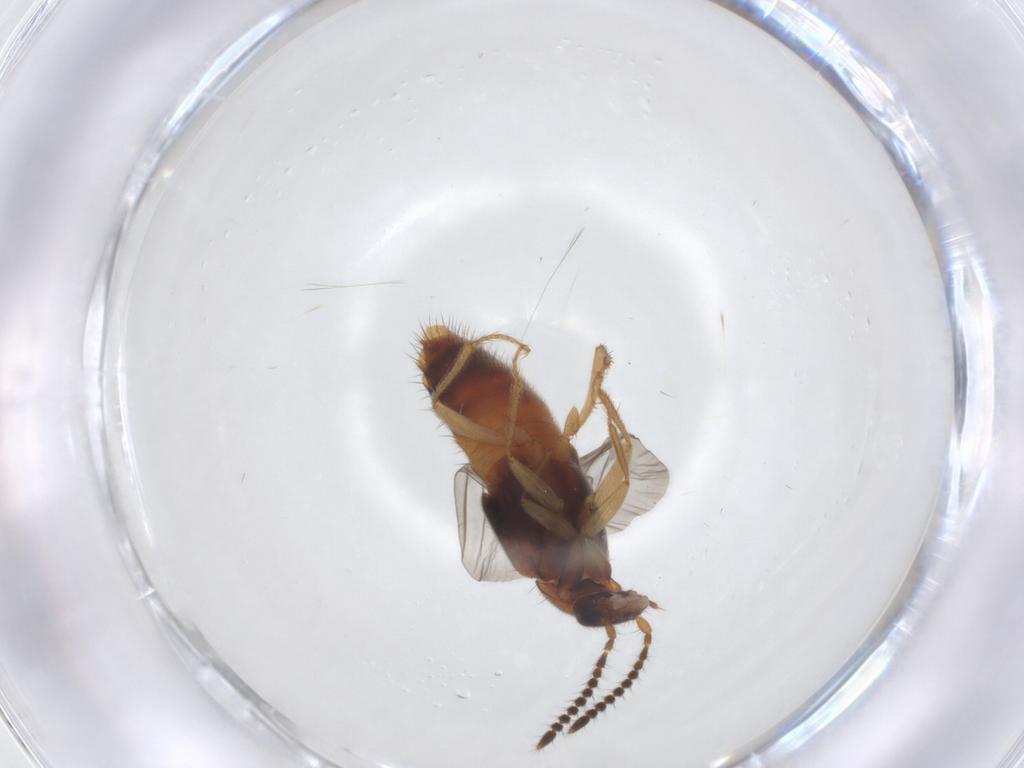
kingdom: Animalia
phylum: Arthropoda
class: Insecta
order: Coleoptera
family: Staphylinidae
